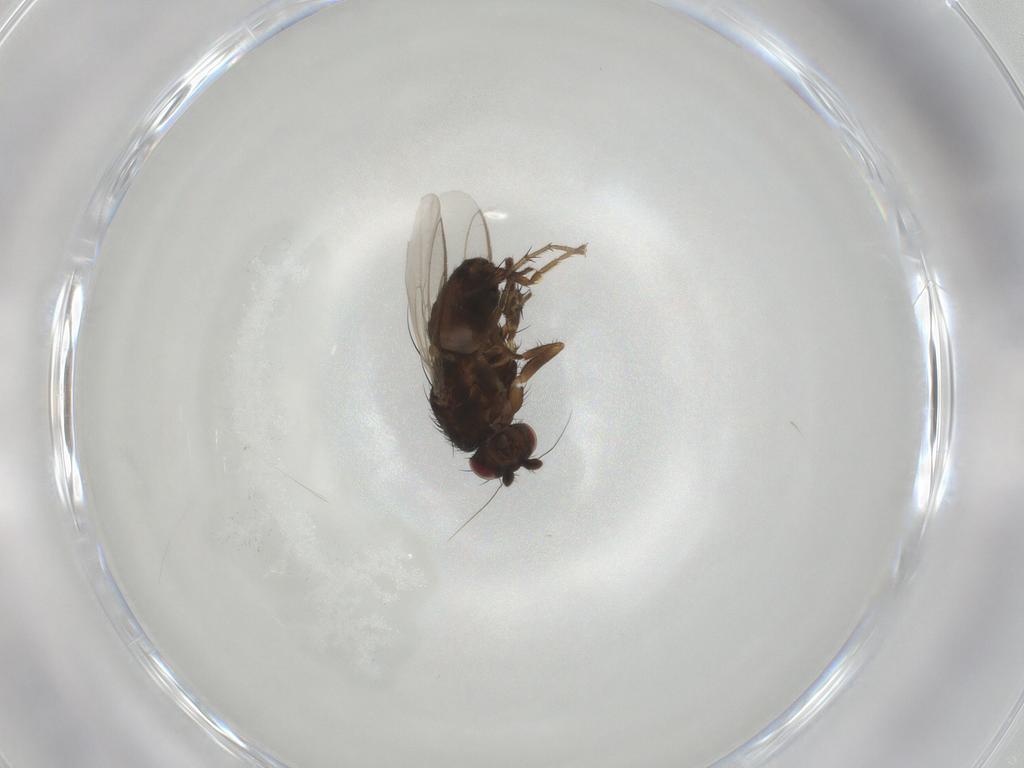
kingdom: Animalia
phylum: Arthropoda
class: Insecta
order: Diptera
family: Sphaeroceridae
